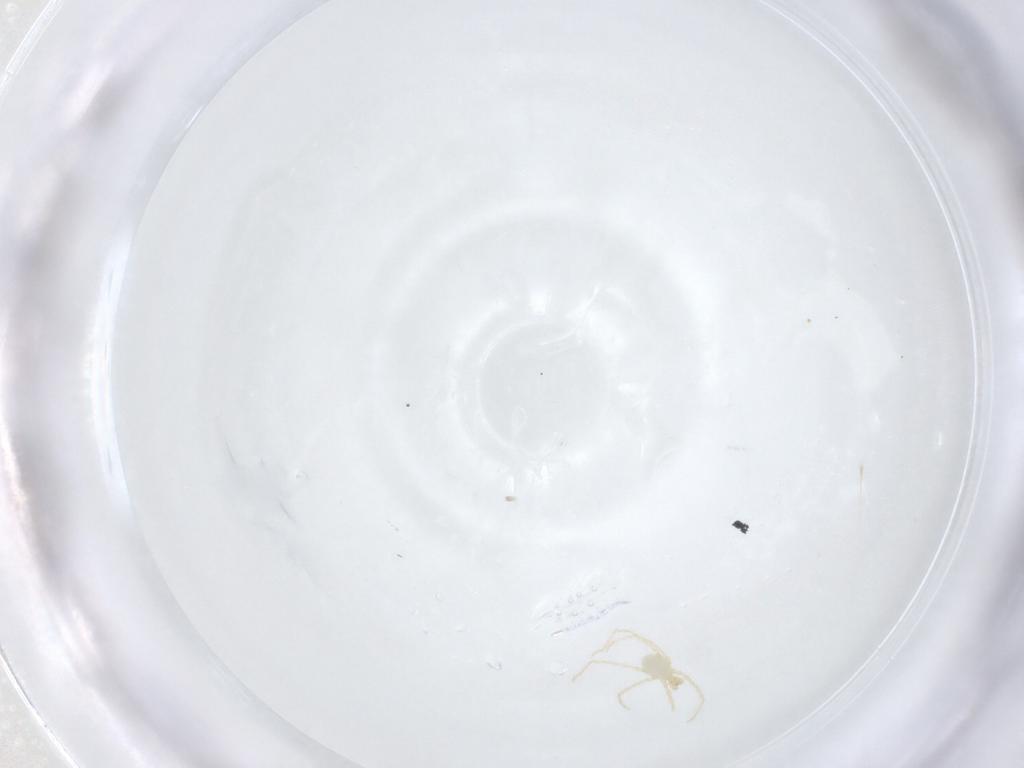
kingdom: Animalia
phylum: Arthropoda
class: Arachnida
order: Trombidiformes
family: Erythraeidae
